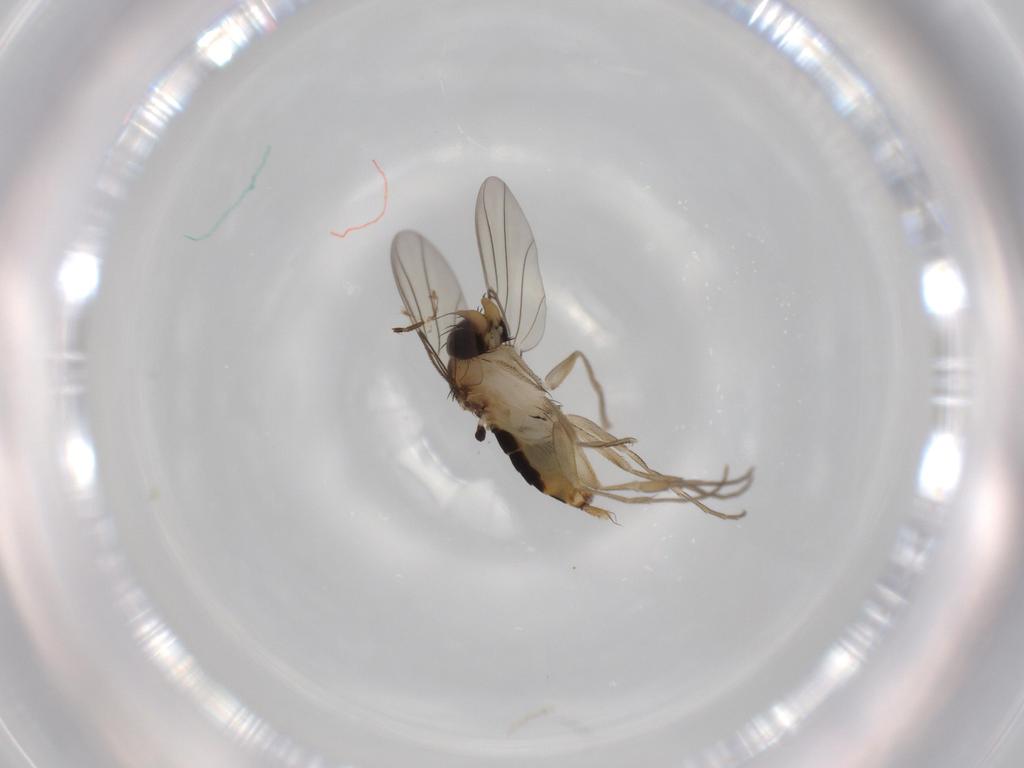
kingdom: Animalia
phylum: Arthropoda
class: Insecta
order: Diptera
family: Phoridae
